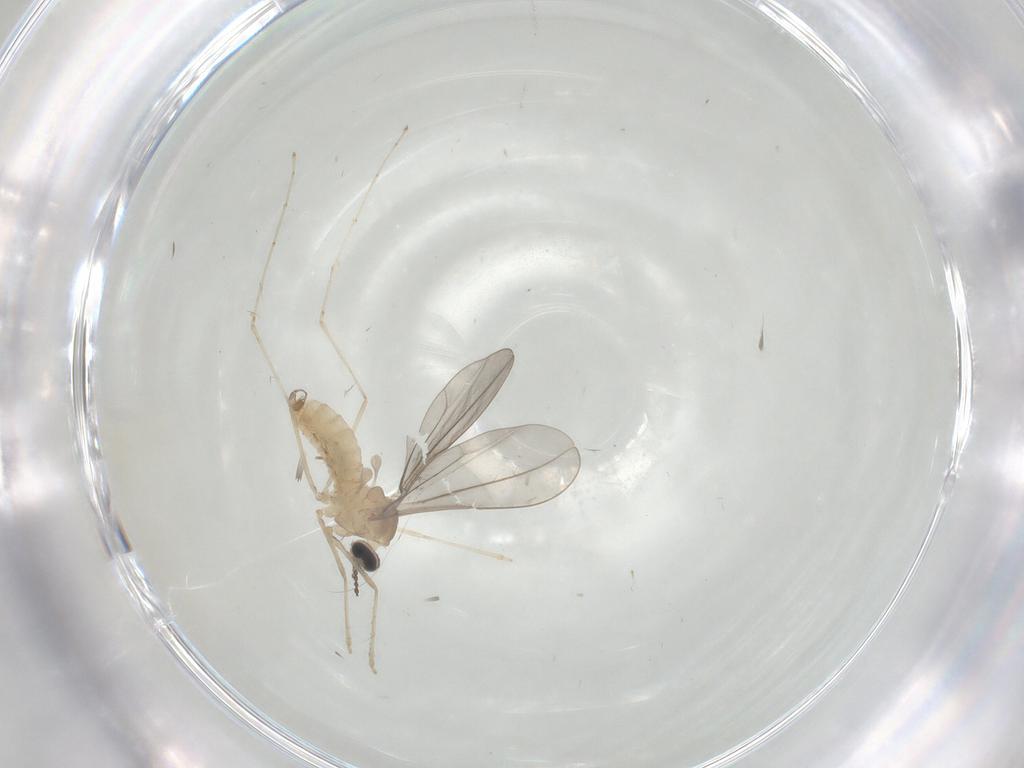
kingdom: Animalia
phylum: Arthropoda
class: Insecta
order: Diptera
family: Cecidomyiidae
